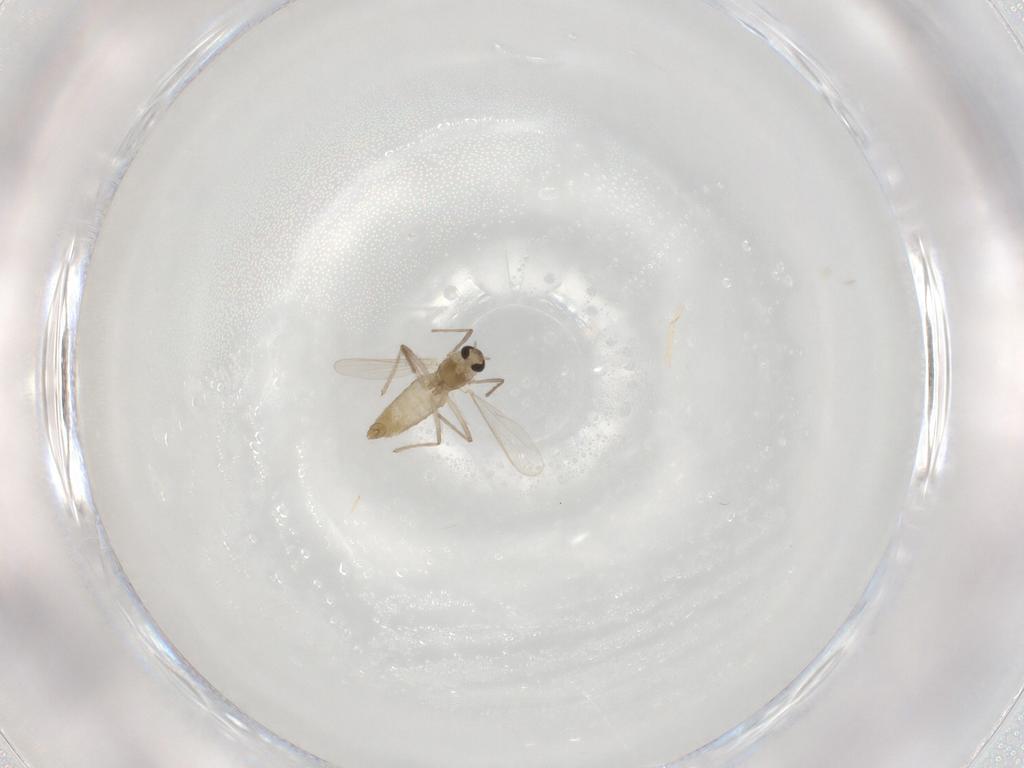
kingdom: Animalia
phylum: Arthropoda
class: Insecta
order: Diptera
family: Chironomidae
